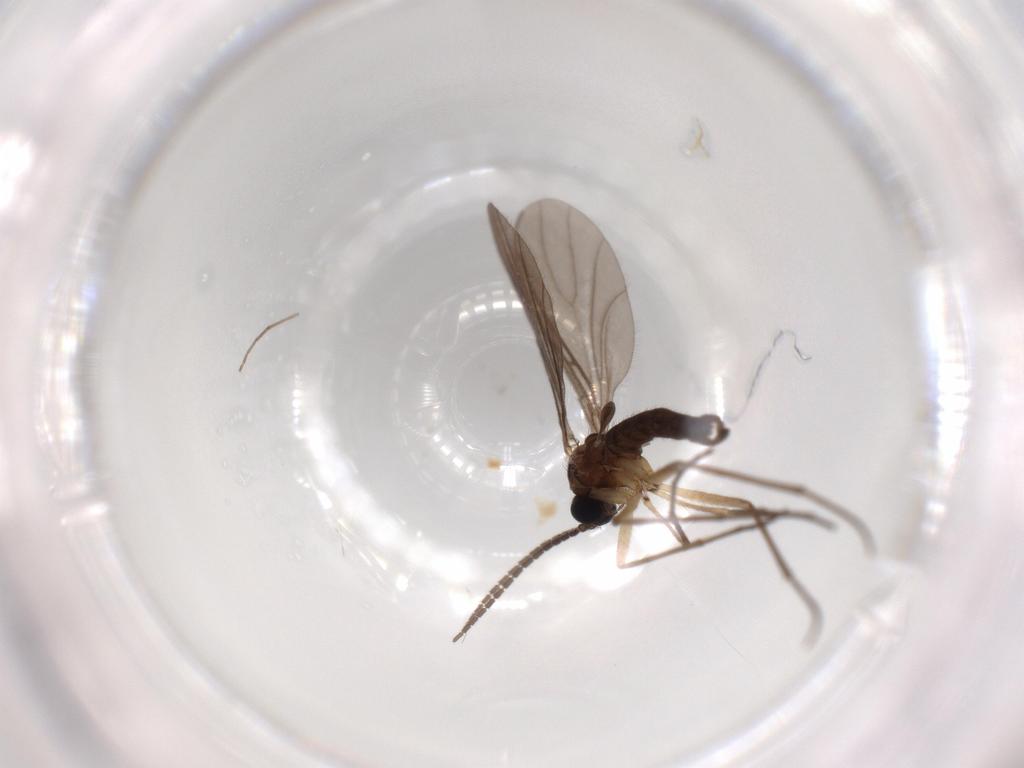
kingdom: Animalia
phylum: Arthropoda
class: Insecta
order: Diptera
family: Sciaridae
